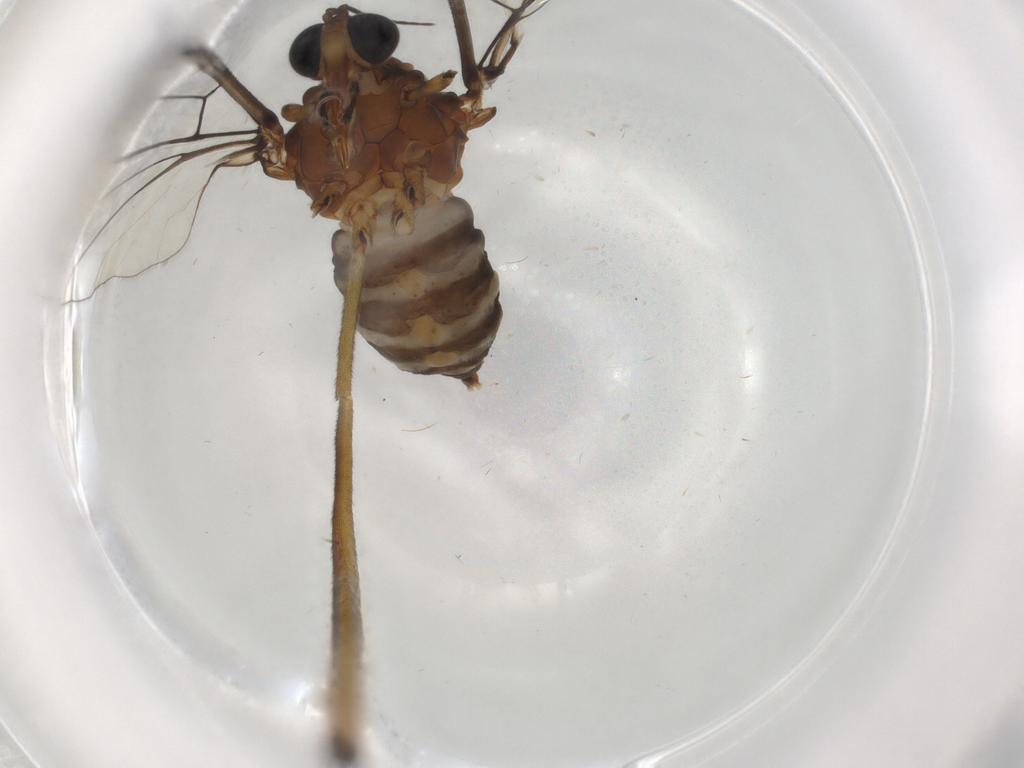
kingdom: Animalia
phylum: Arthropoda
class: Insecta
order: Diptera
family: Blephariceridae
